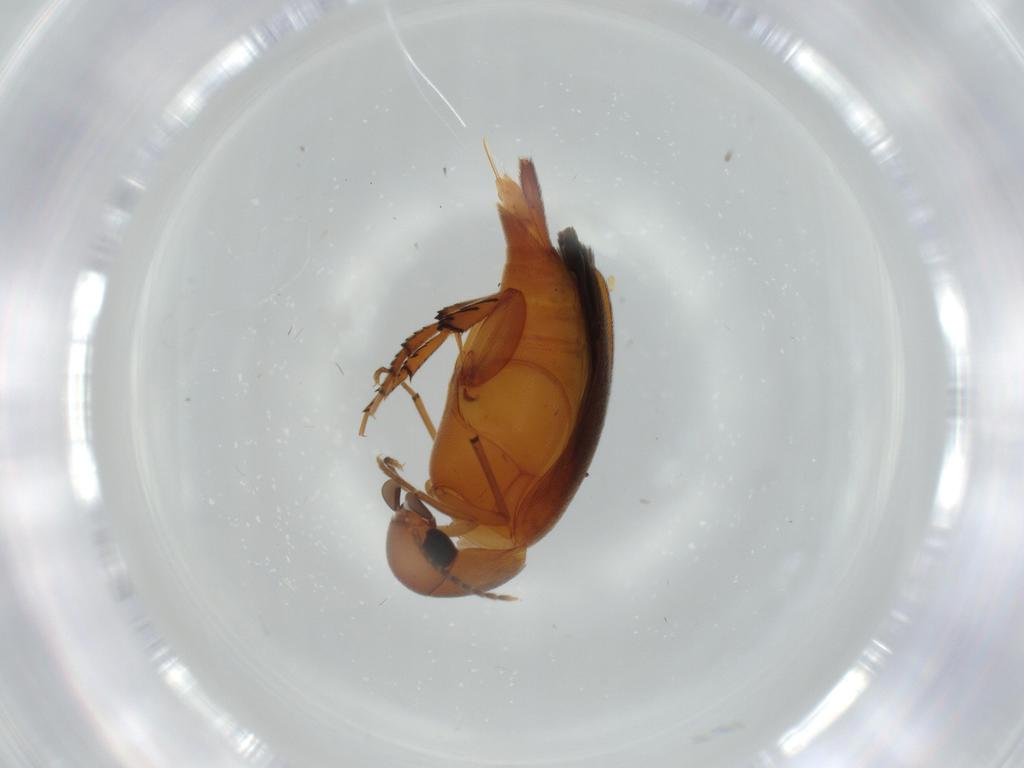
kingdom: Animalia
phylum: Arthropoda
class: Insecta
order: Coleoptera
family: Mordellidae
